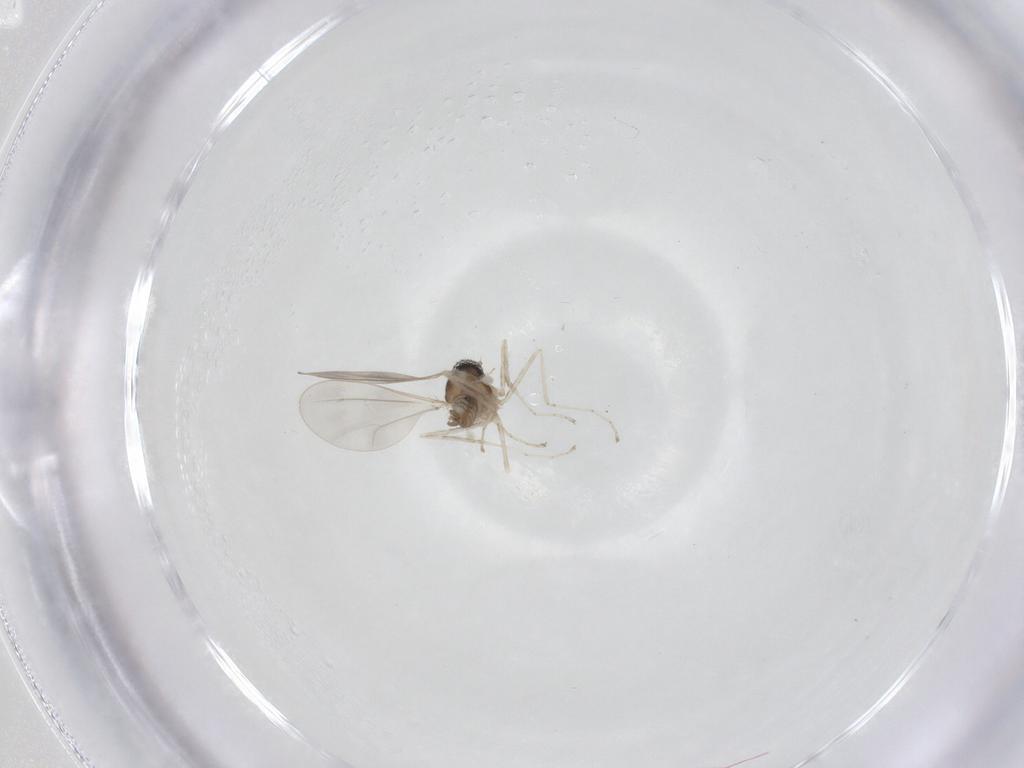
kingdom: Animalia
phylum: Arthropoda
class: Insecta
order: Diptera
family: Cecidomyiidae
